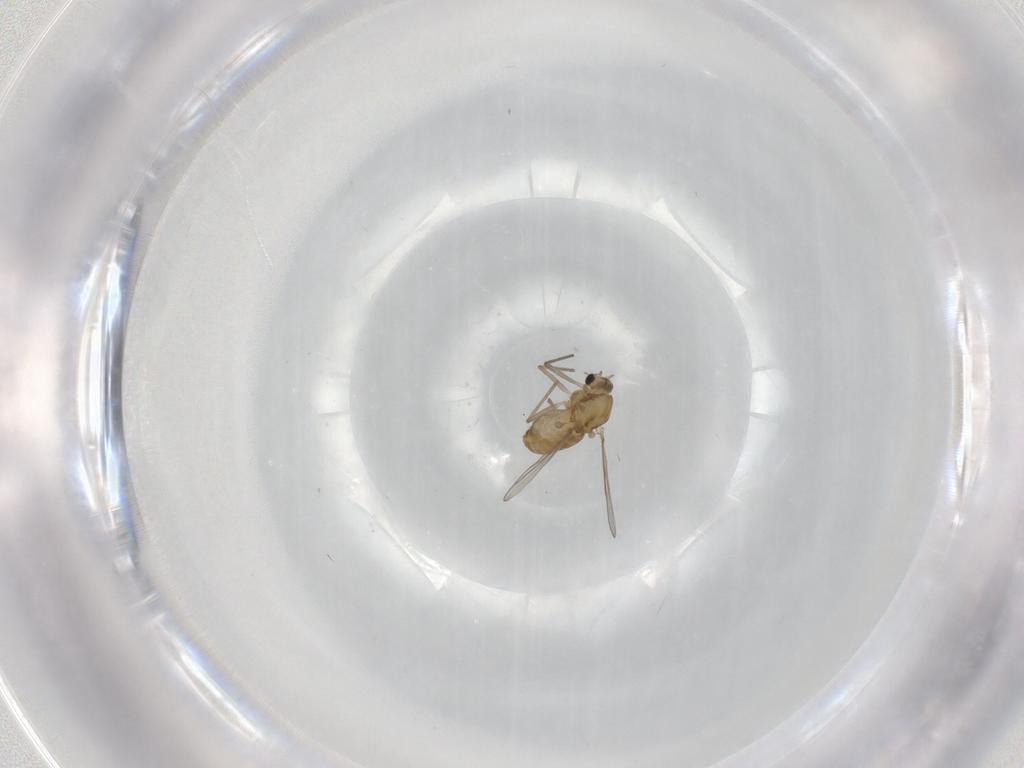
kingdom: Animalia
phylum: Arthropoda
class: Insecta
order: Diptera
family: Chironomidae
